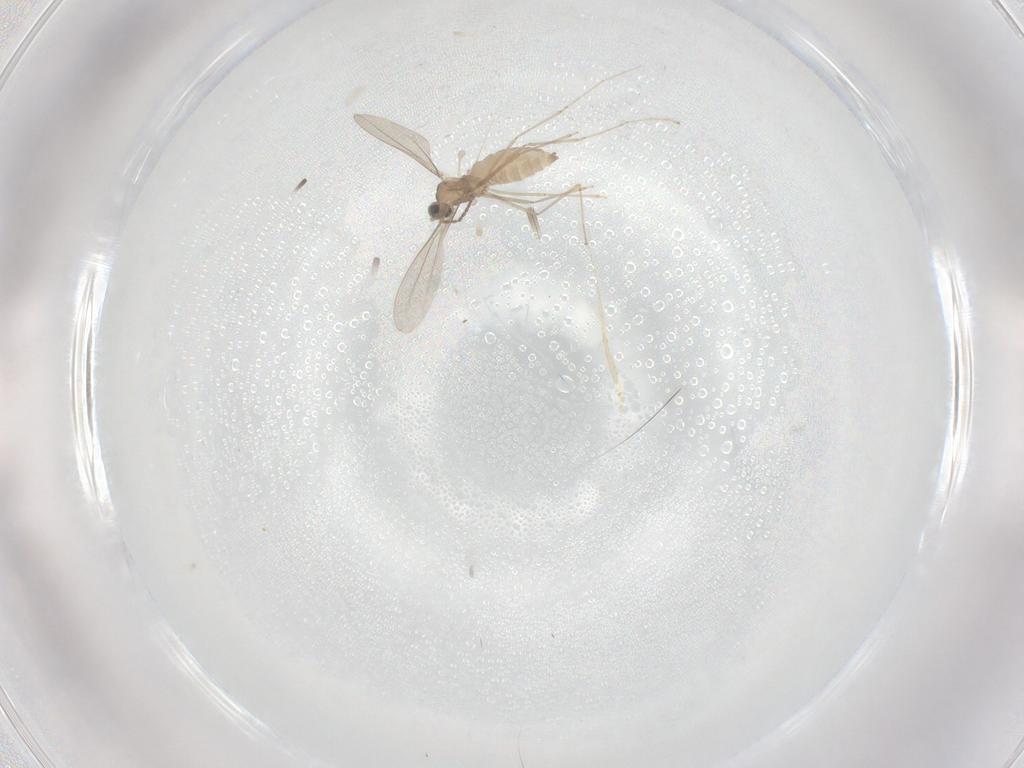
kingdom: Animalia
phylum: Arthropoda
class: Insecta
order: Diptera
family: Cecidomyiidae
